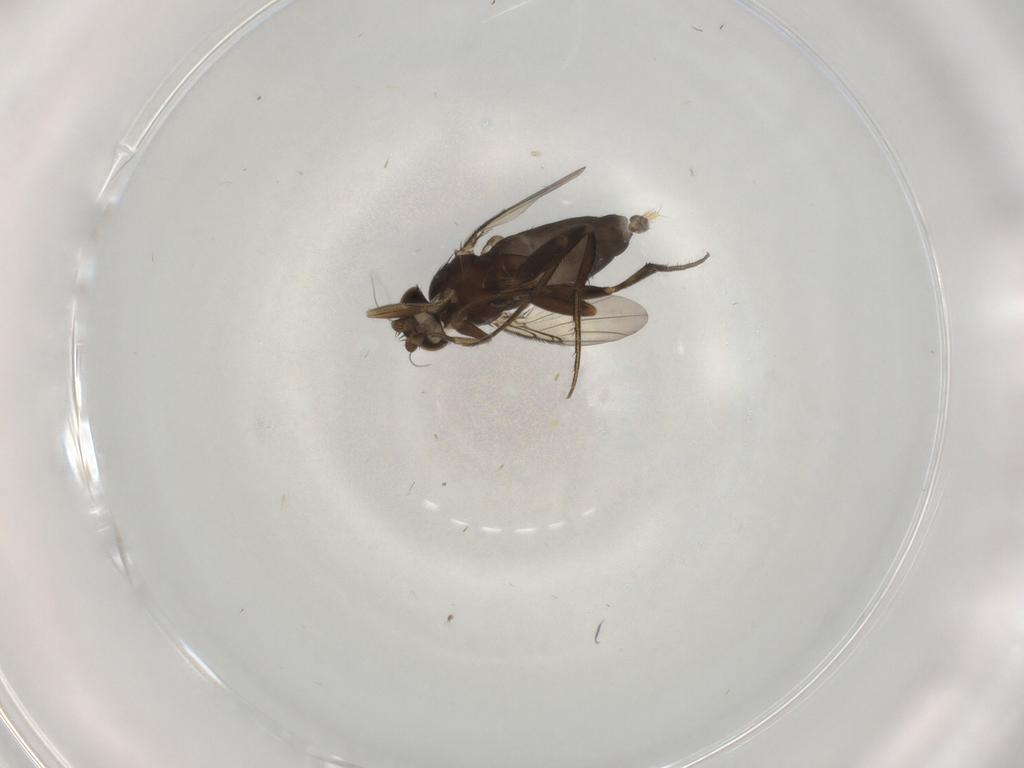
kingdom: Animalia
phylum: Arthropoda
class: Insecta
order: Diptera
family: Phoridae
